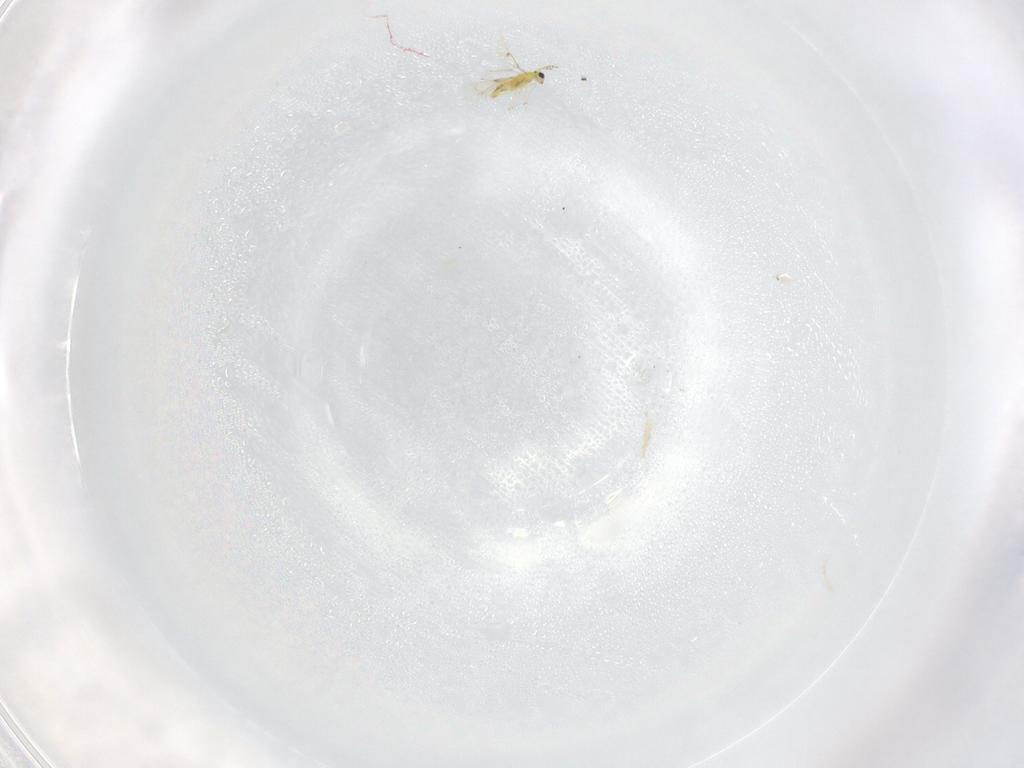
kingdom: Animalia
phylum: Arthropoda
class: Insecta
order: Hymenoptera
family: Trichogrammatidae
